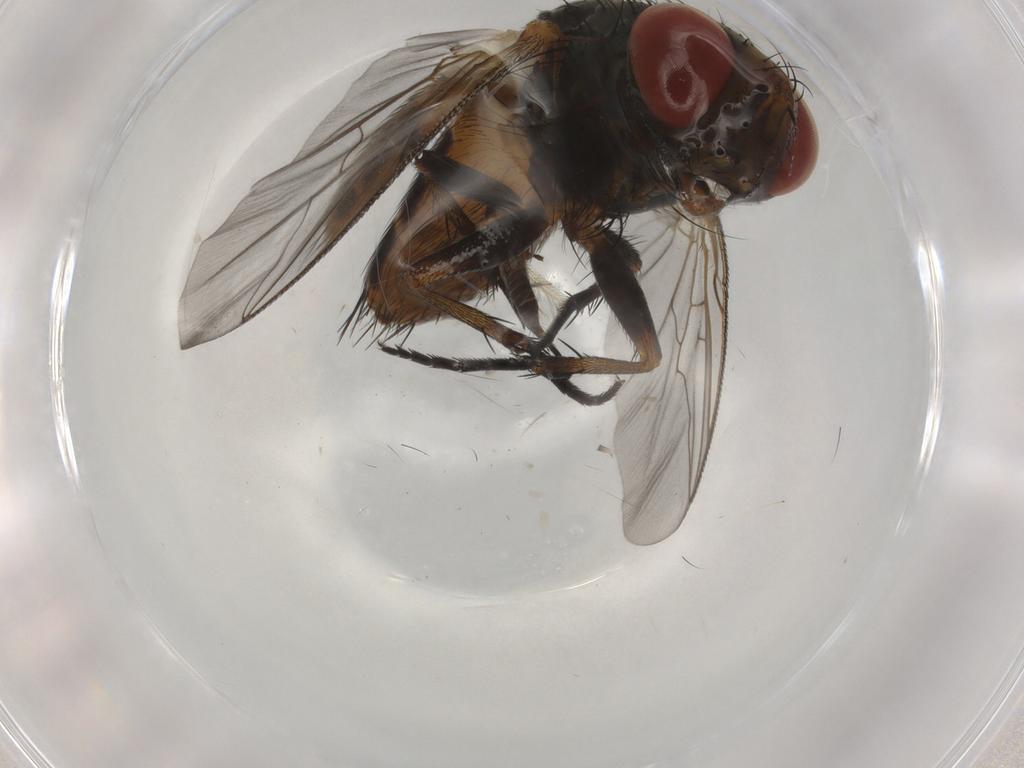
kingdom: Animalia
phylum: Arthropoda
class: Insecta
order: Diptera
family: Sarcophagidae
